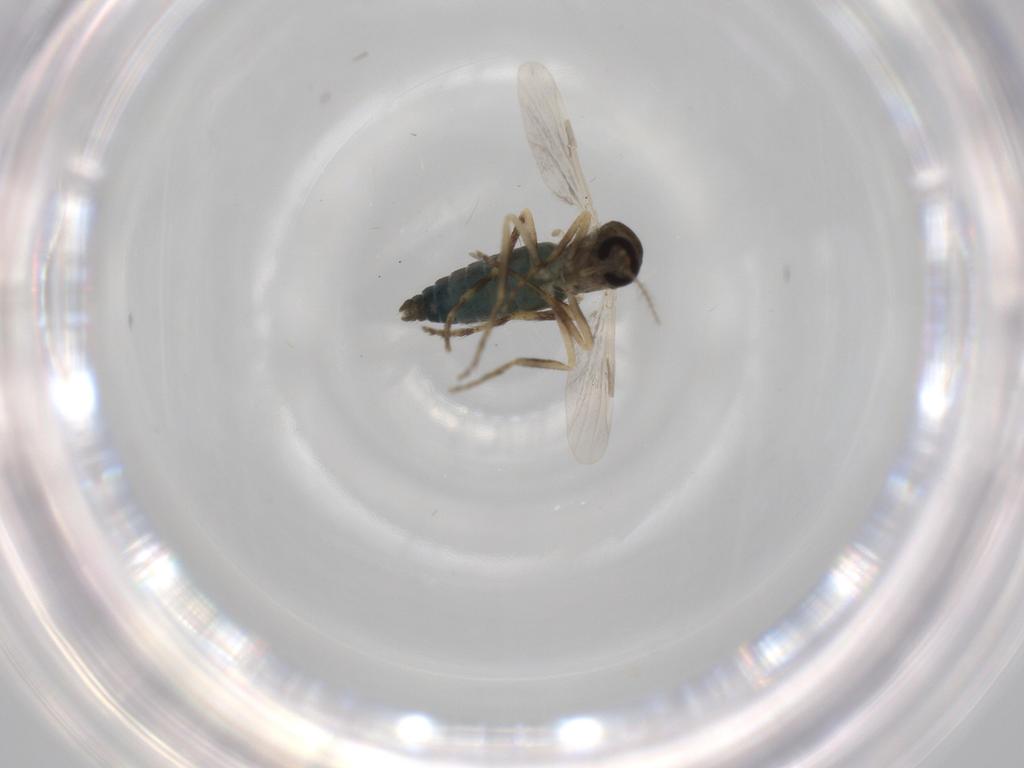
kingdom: Animalia
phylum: Arthropoda
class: Insecta
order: Diptera
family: Ceratopogonidae
